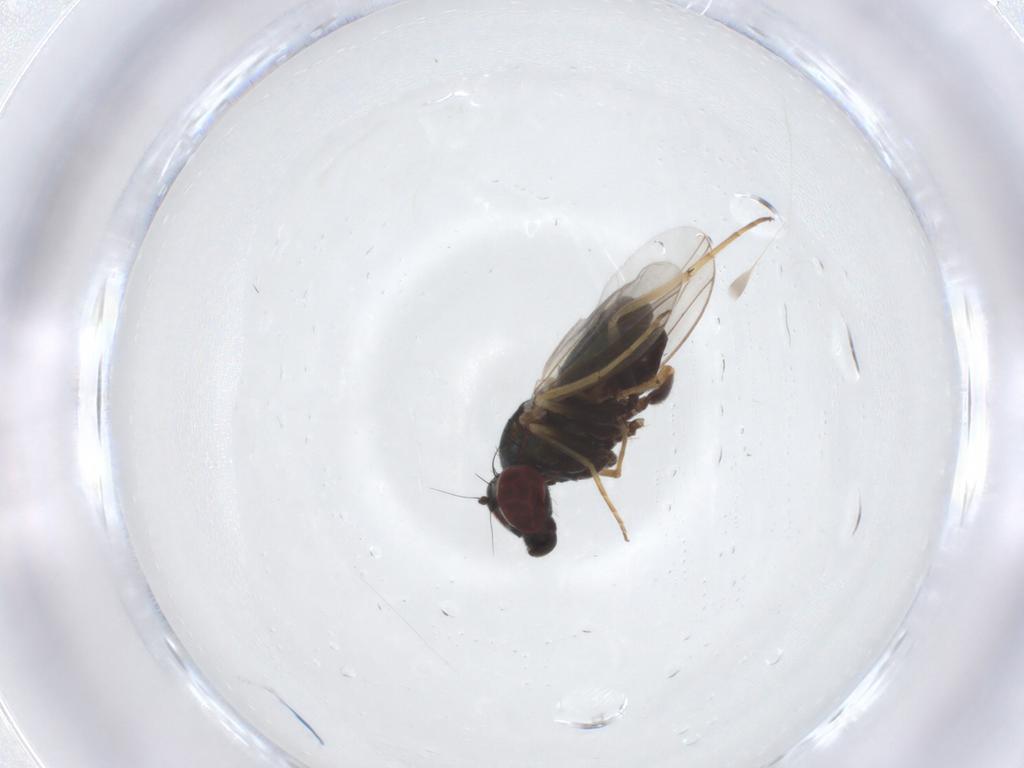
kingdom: Animalia
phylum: Arthropoda
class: Insecta
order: Diptera
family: Dolichopodidae
